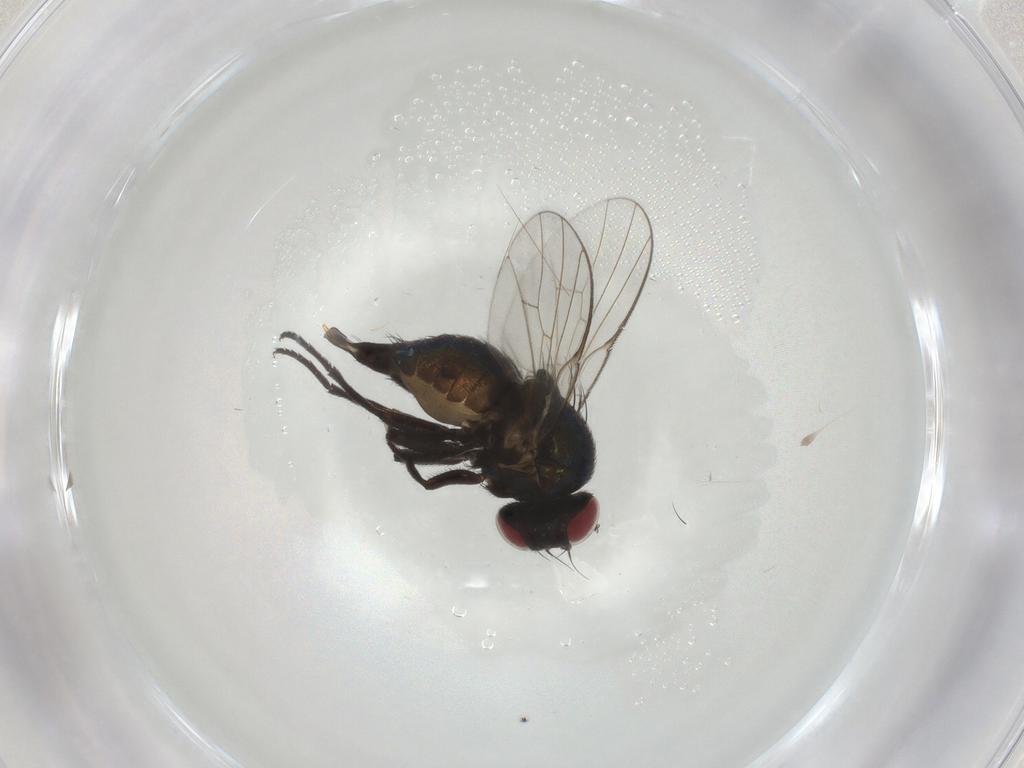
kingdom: Animalia
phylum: Arthropoda
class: Insecta
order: Diptera
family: Agromyzidae
